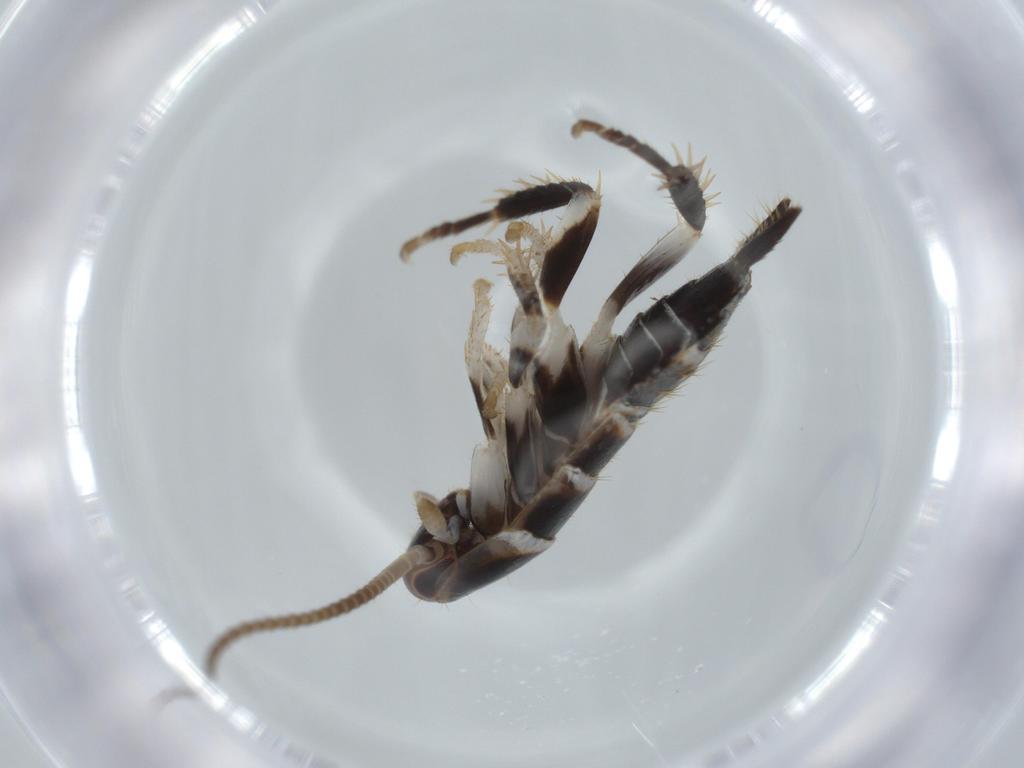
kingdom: Animalia
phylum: Arthropoda
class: Insecta
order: Blattodea
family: Ectobiidae
